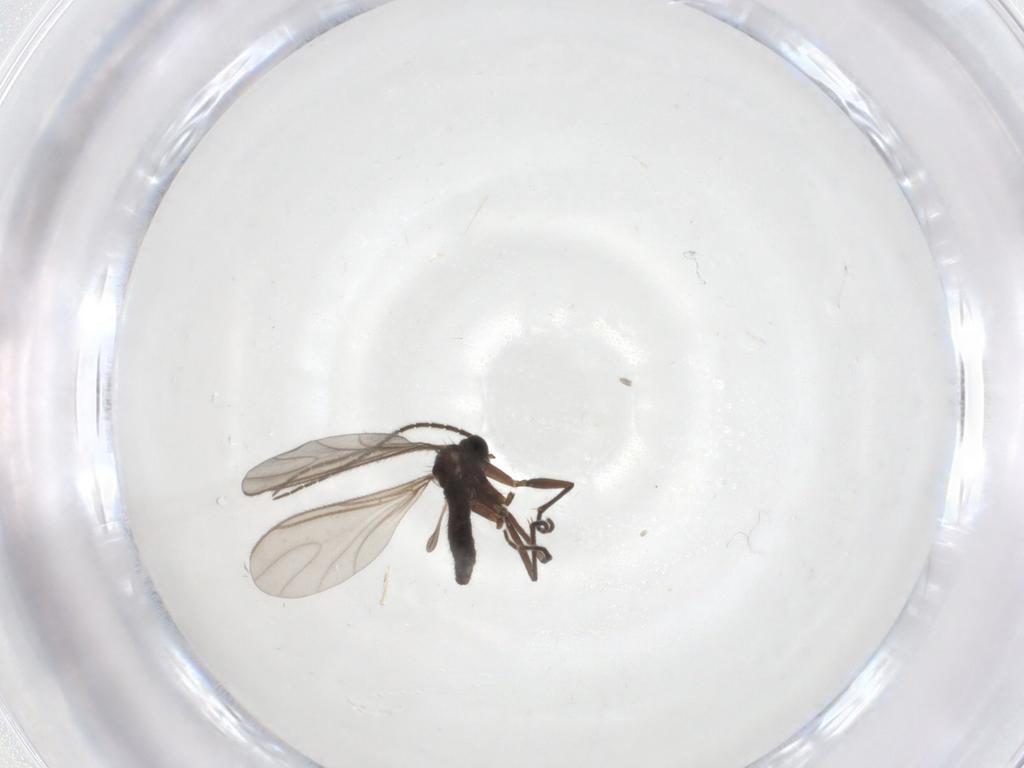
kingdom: Animalia
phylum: Arthropoda
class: Insecta
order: Diptera
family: Sciaridae
